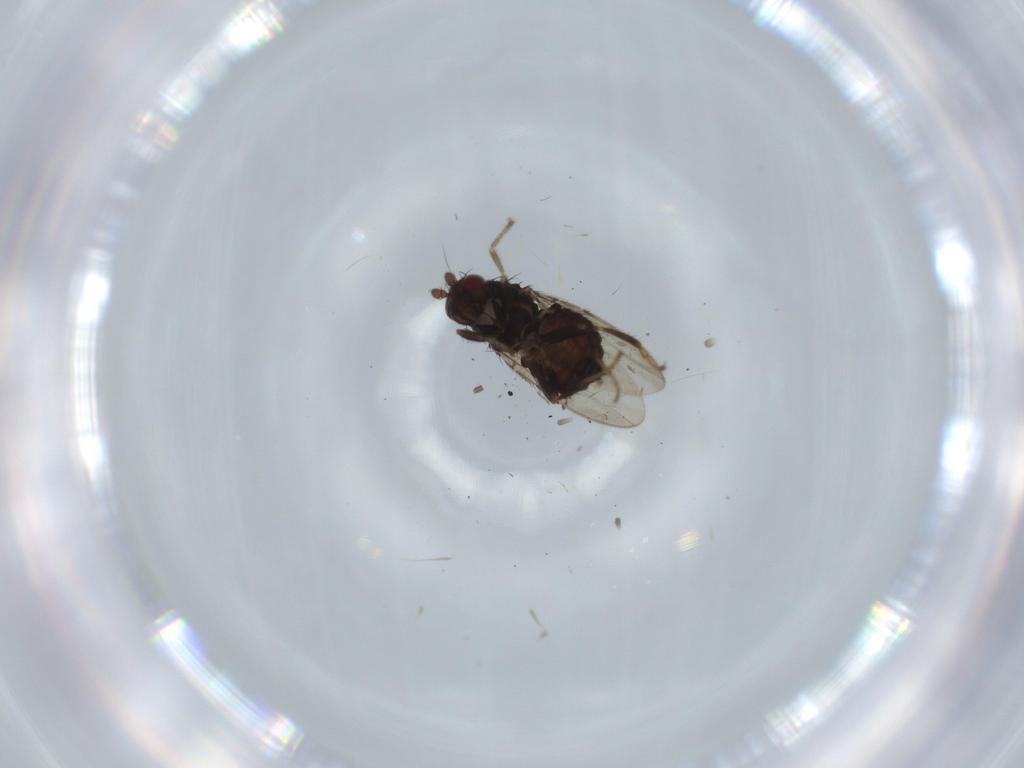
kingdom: Animalia
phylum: Arthropoda
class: Insecta
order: Diptera
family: Sphaeroceridae
